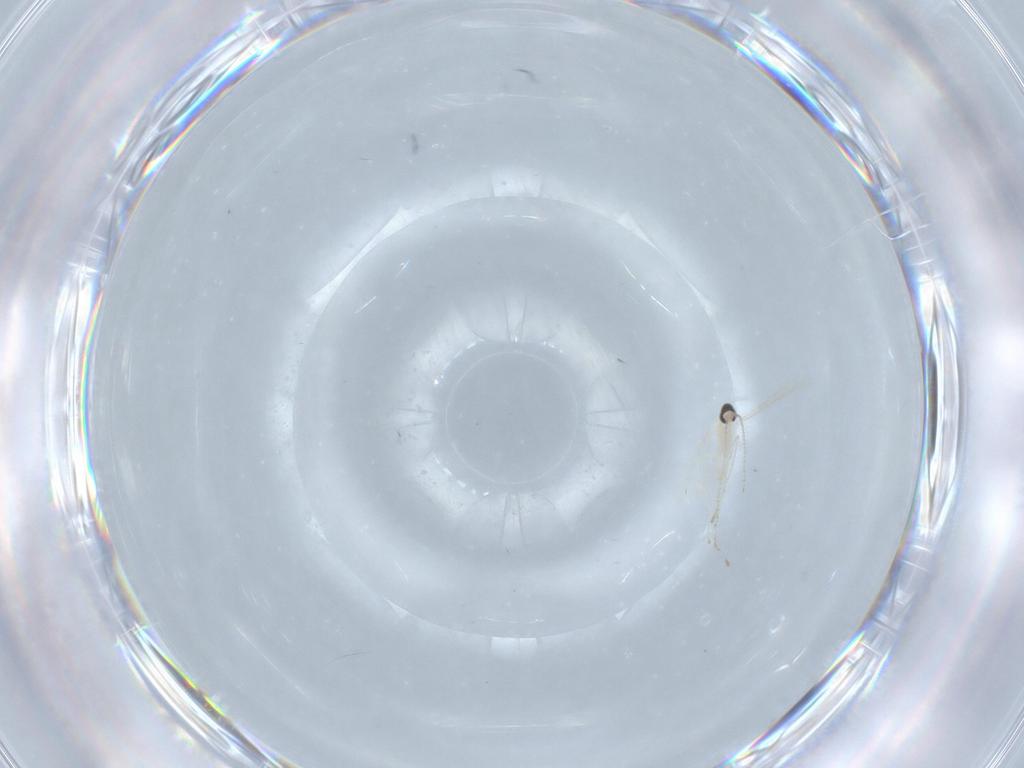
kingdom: Animalia
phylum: Arthropoda
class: Insecta
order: Diptera
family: Cecidomyiidae
